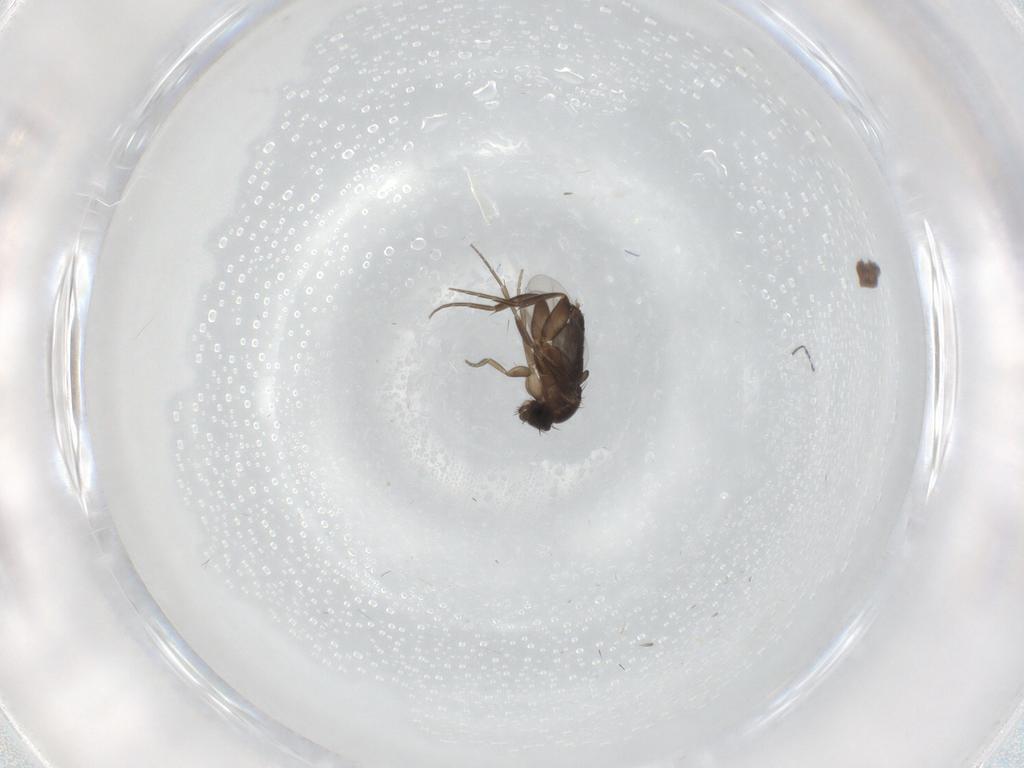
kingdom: Animalia
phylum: Arthropoda
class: Insecta
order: Diptera
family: Phoridae
